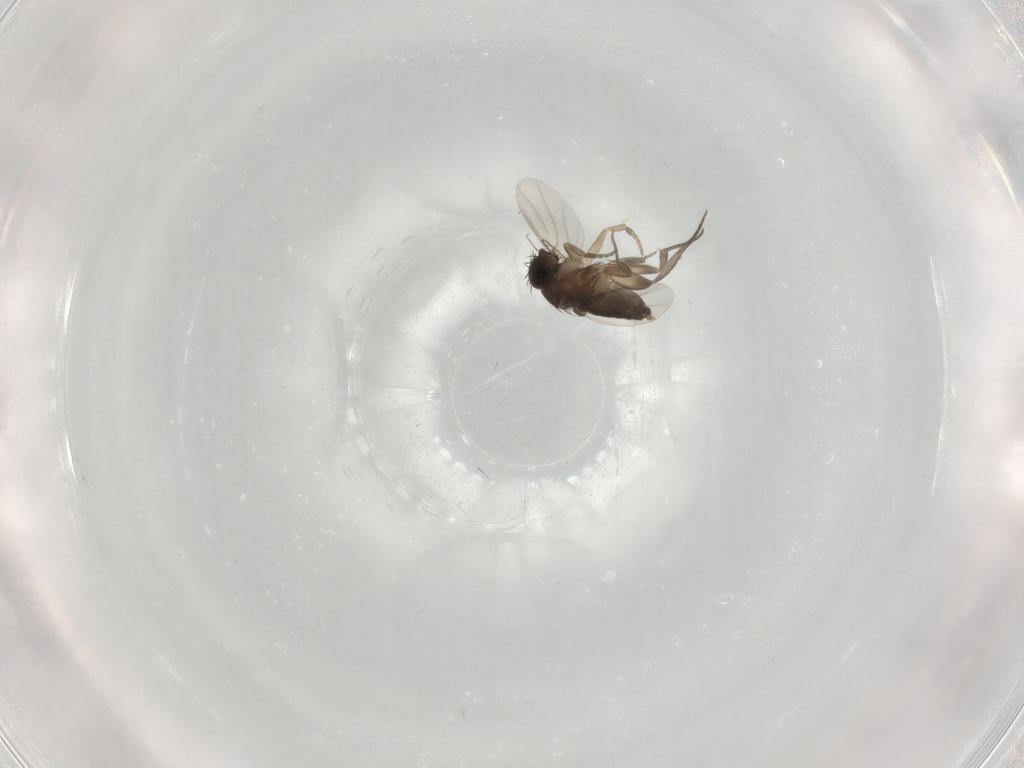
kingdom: Animalia
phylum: Arthropoda
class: Insecta
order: Diptera
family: Phoridae
